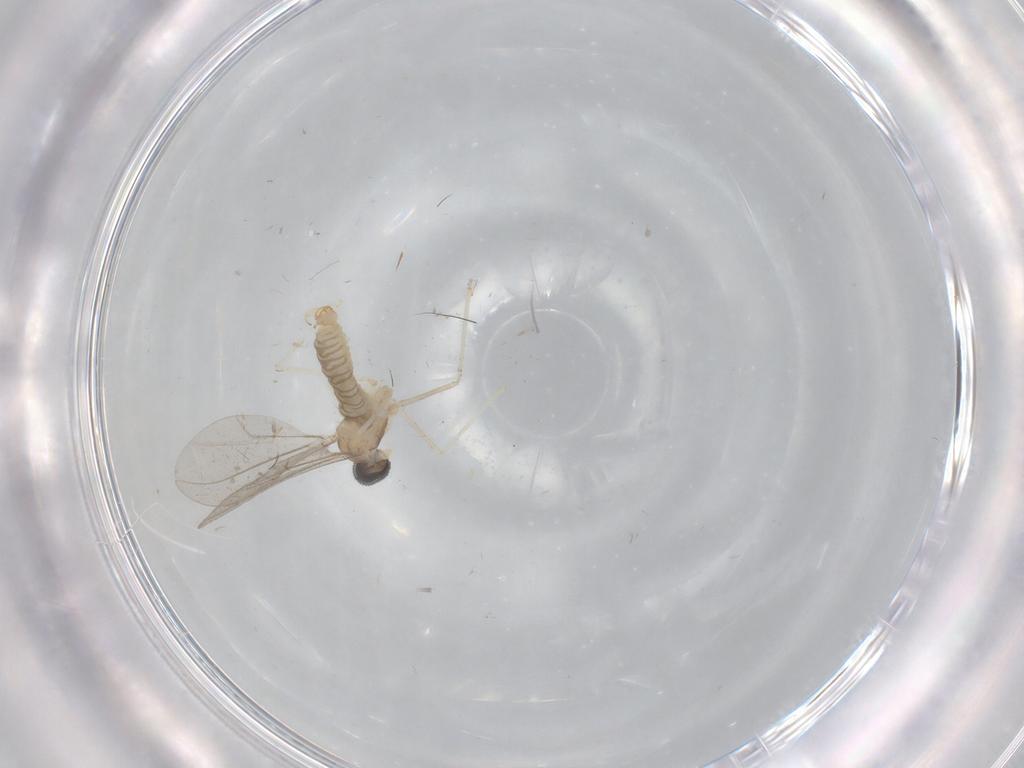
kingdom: Animalia
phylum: Arthropoda
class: Insecta
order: Diptera
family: Cecidomyiidae
